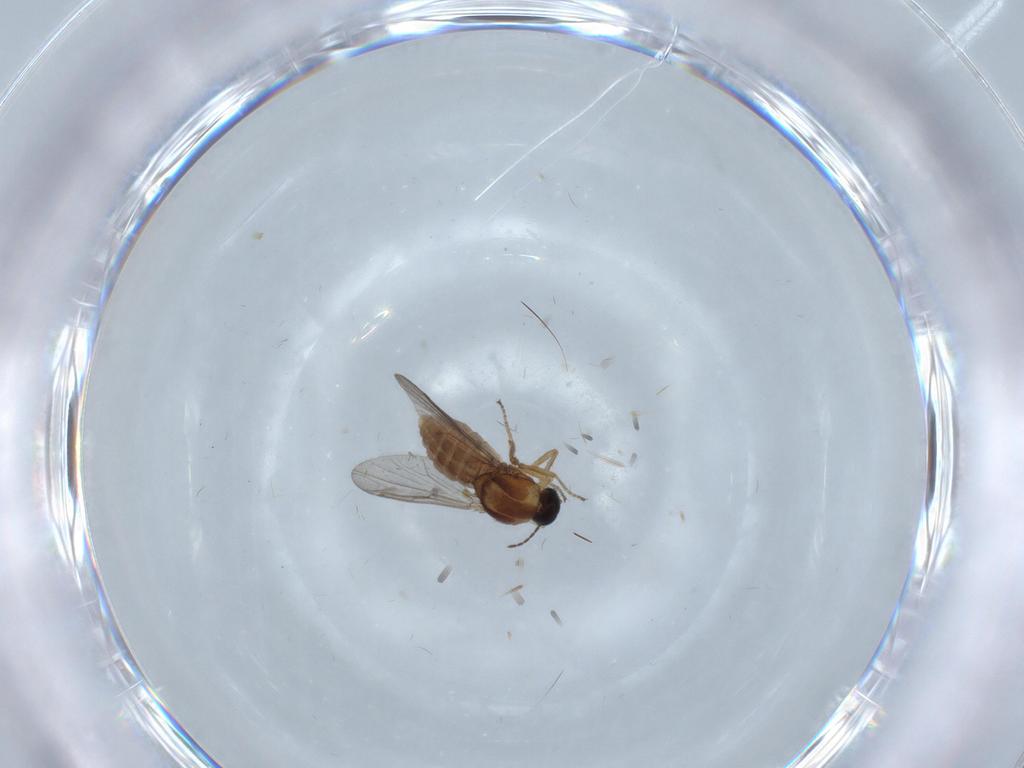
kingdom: Animalia
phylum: Arthropoda
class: Insecta
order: Diptera
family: Ceratopogonidae
